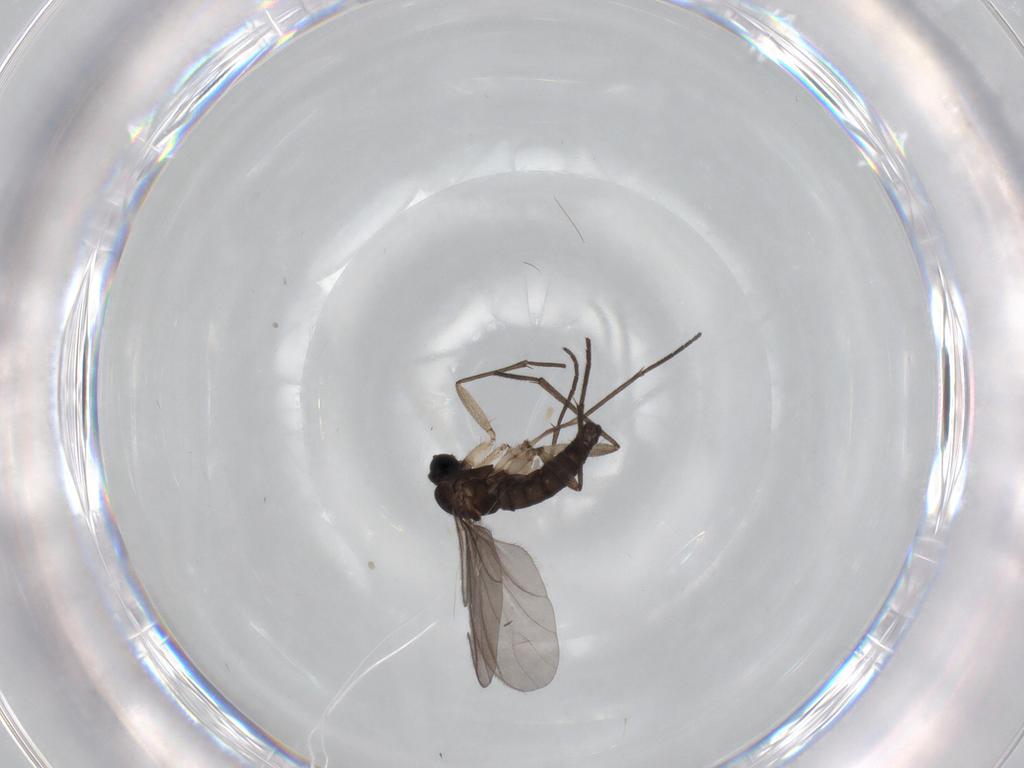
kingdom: Animalia
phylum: Arthropoda
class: Insecta
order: Diptera
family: Sciaridae
